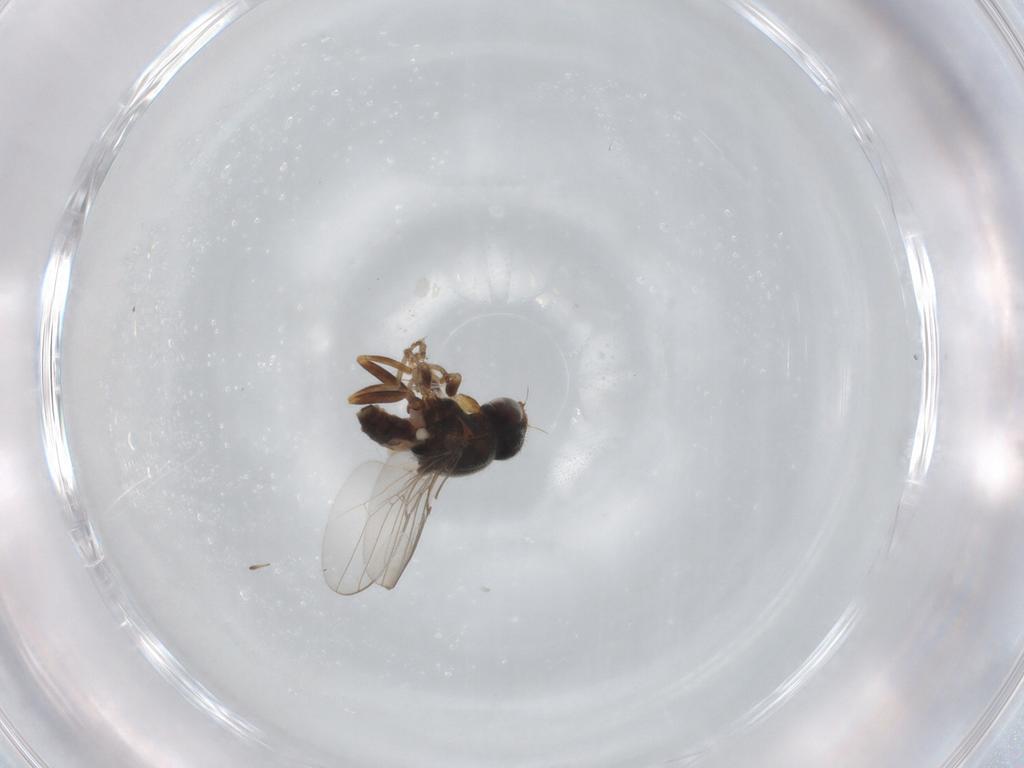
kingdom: Animalia
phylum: Arthropoda
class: Insecta
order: Diptera
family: Chloropidae
